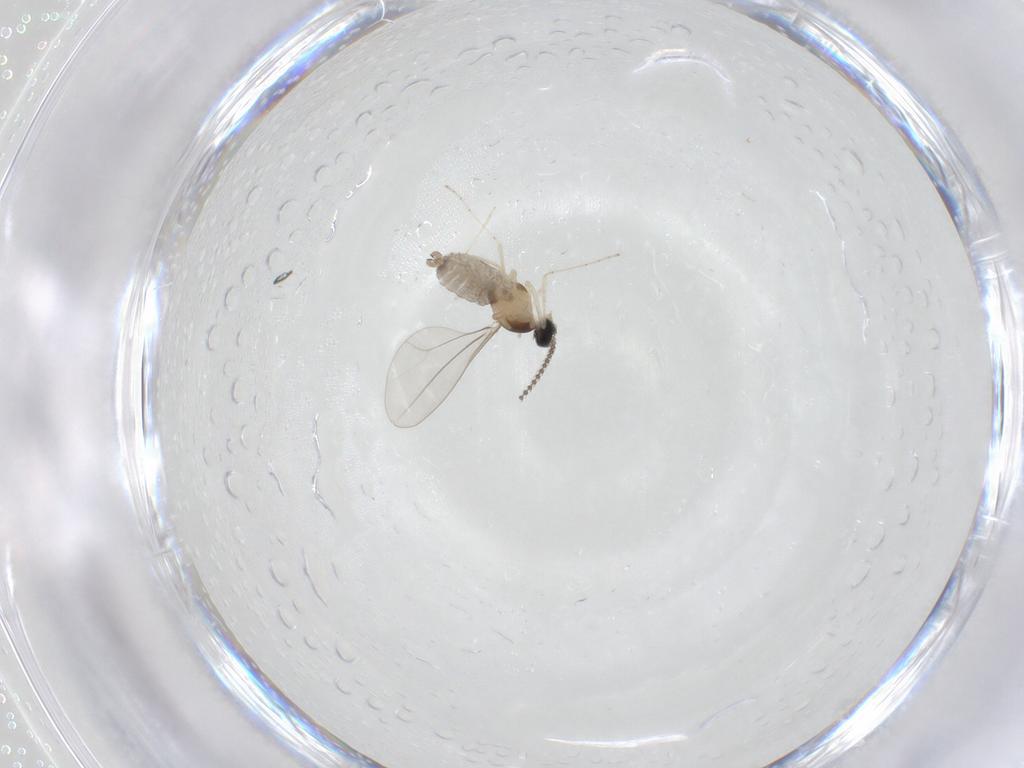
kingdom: Animalia
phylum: Arthropoda
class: Insecta
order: Diptera
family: Cecidomyiidae
